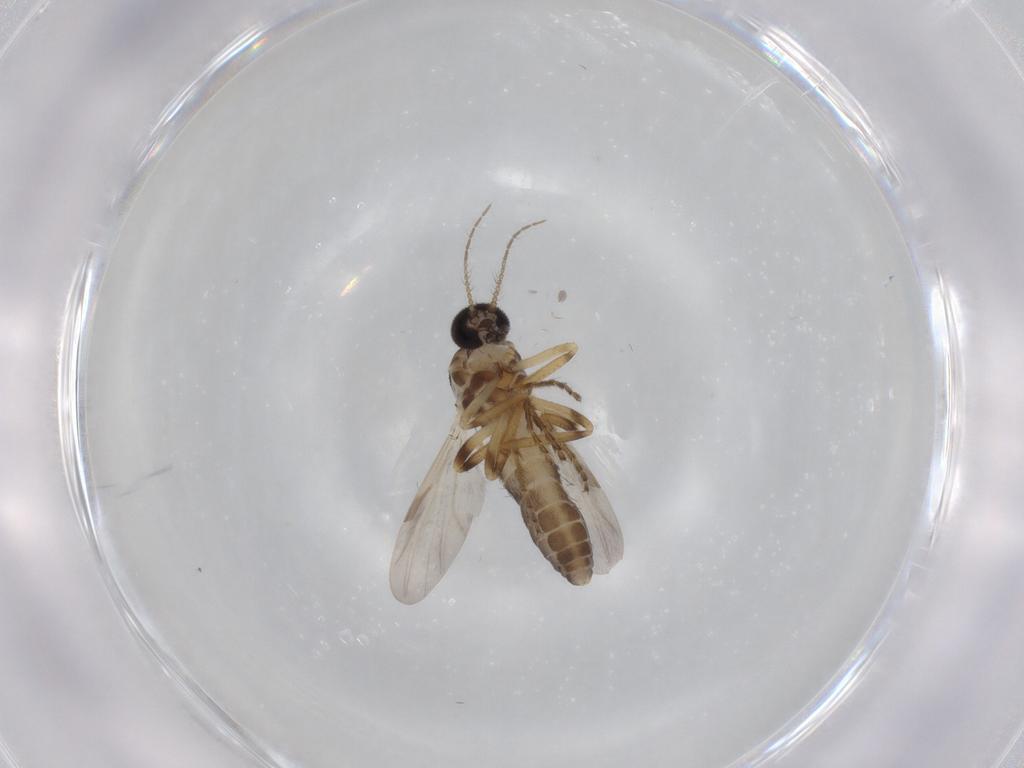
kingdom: Animalia
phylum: Arthropoda
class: Insecta
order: Diptera
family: Ceratopogonidae
